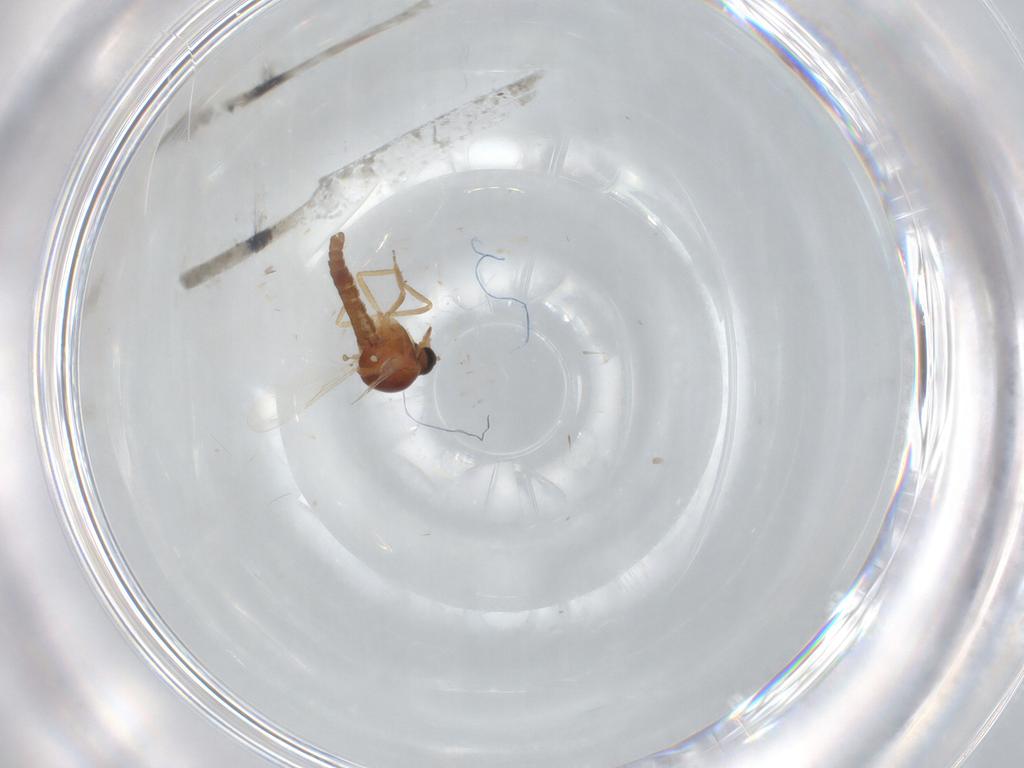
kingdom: Animalia
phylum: Arthropoda
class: Insecta
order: Diptera
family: Ceratopogonidae
